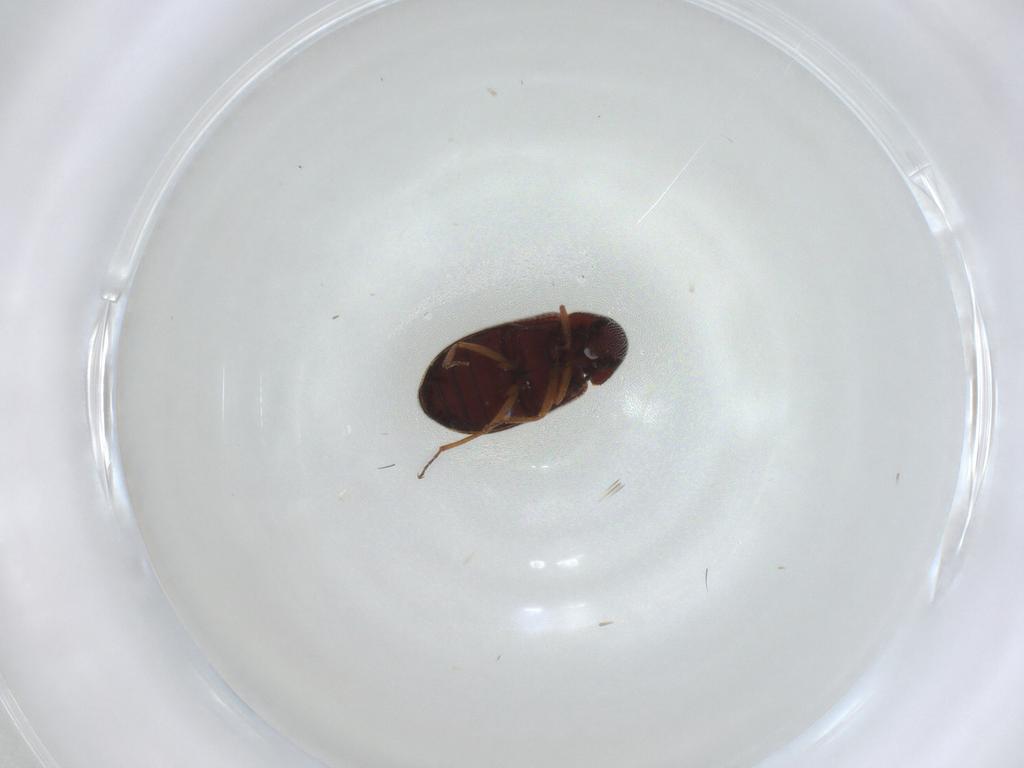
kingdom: Animalia
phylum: Arthropoda
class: Insecta
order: Coleoptera
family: Rhadalidae
